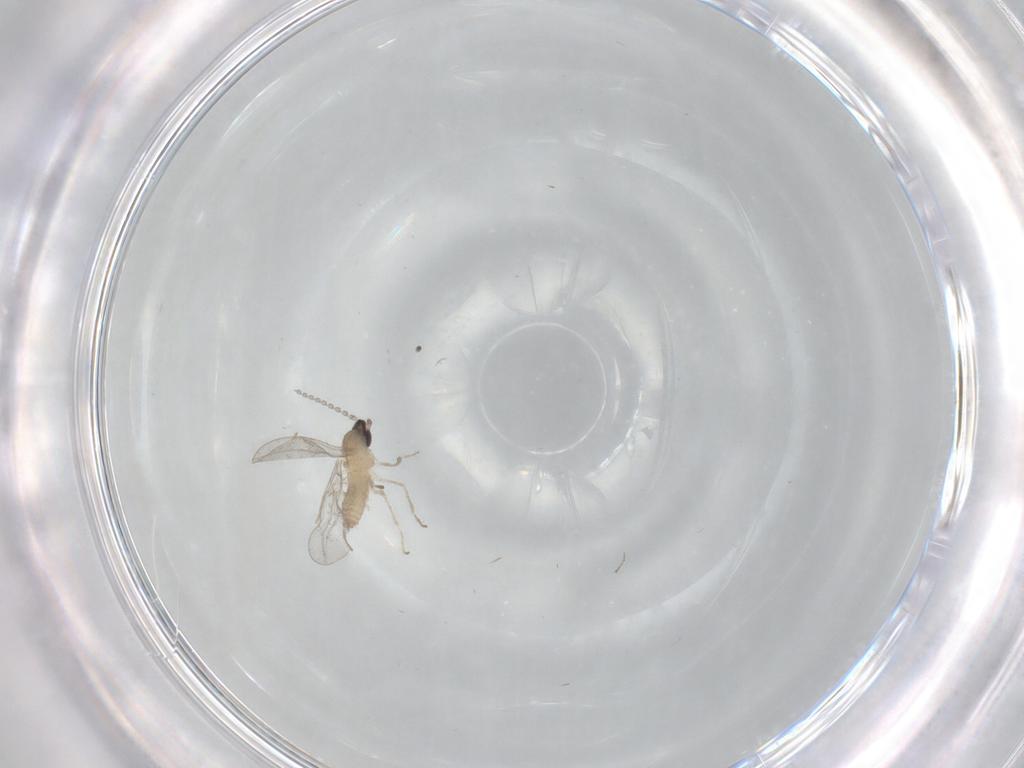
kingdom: Animalia
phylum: Arthropoda
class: Insecta
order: Diptera
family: Cecidomyiidae
